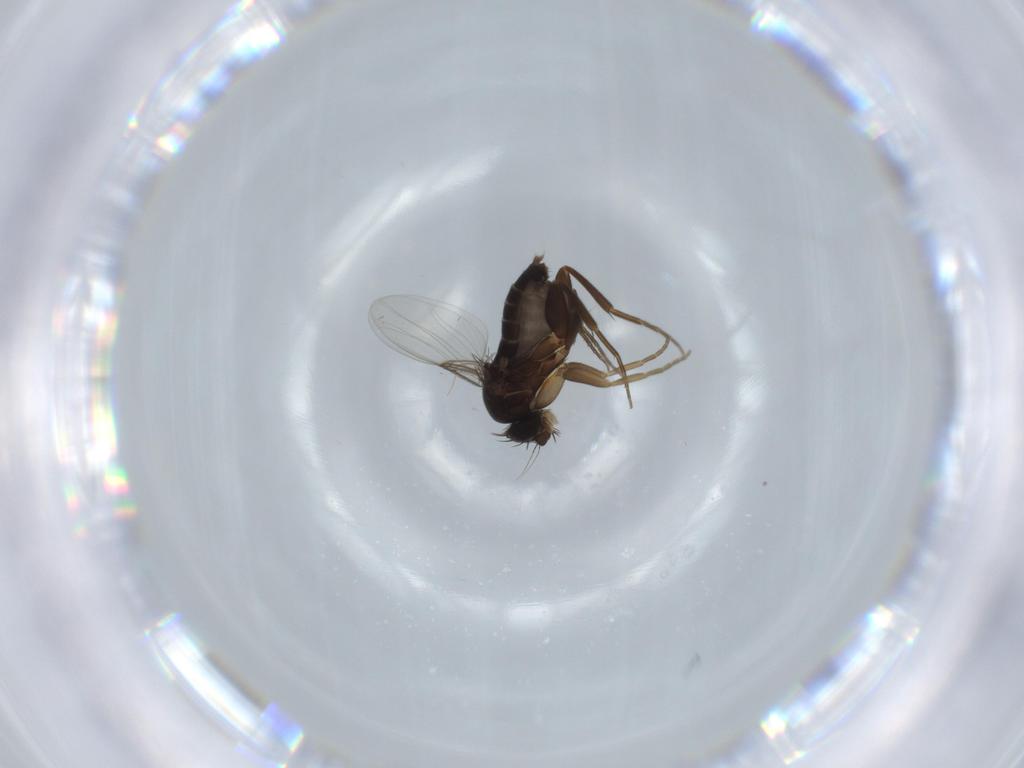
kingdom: Animalia
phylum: Arthropoda
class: Insecta
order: Diptera
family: Phoridae
